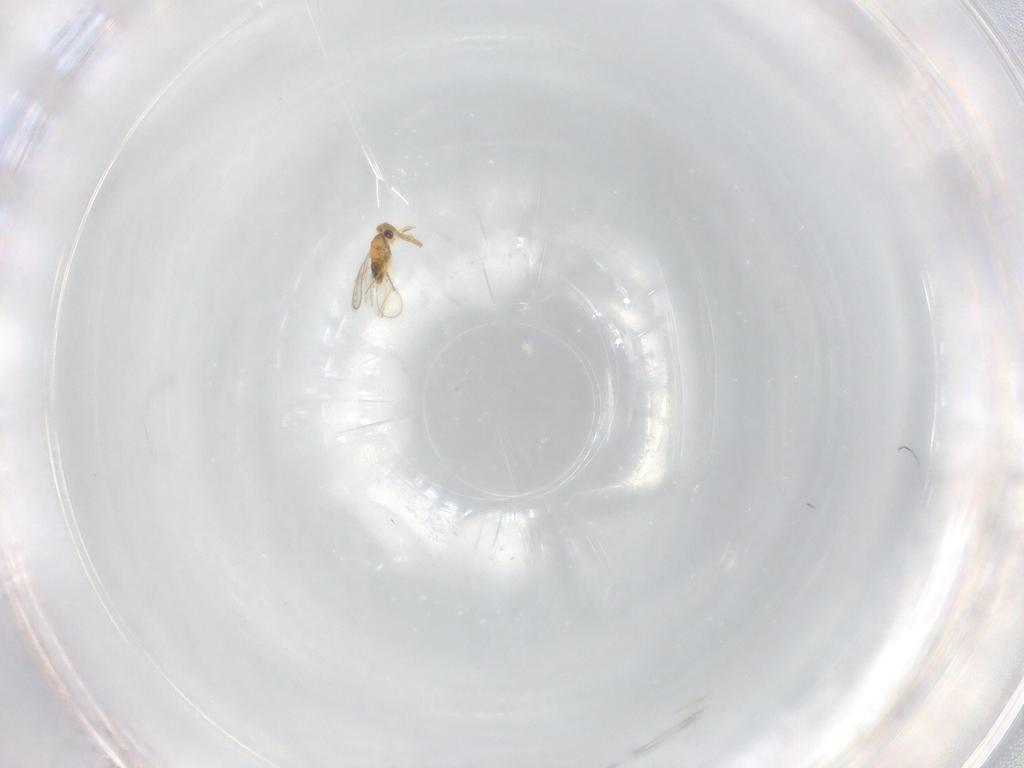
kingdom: Animalia
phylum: Arthropoda
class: Insecta
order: Hymenoptera
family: Aphelinidae
